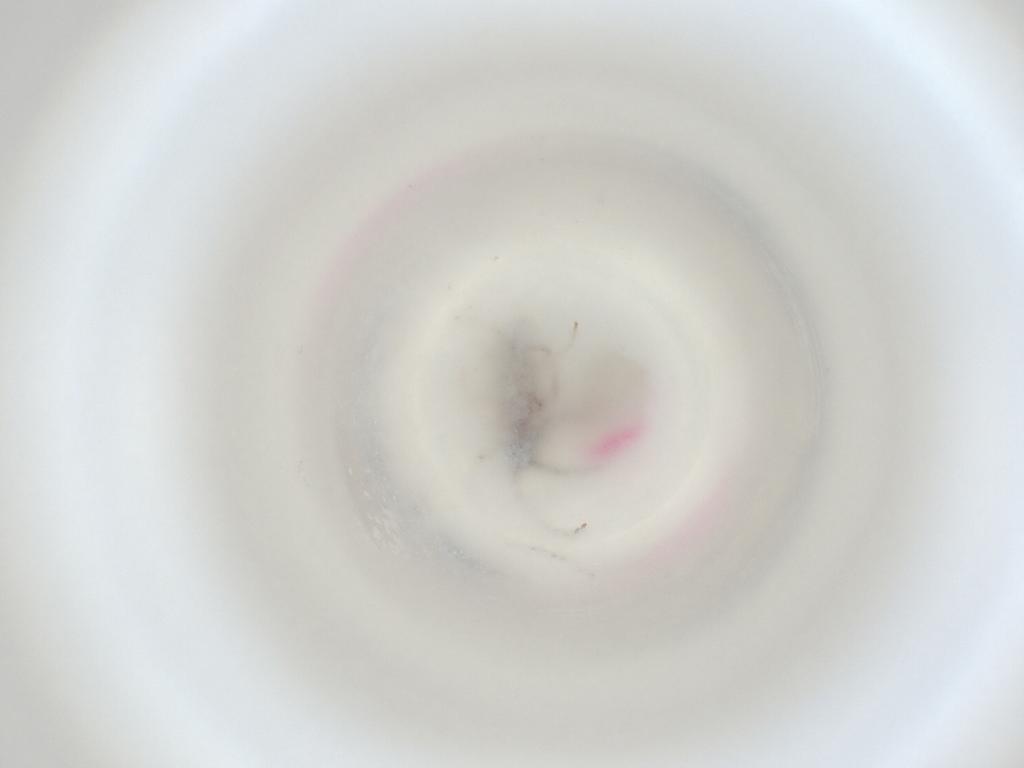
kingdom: Animalia
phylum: Arthropoda
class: Insecta
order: Diptera
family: Cecidomyiidae
